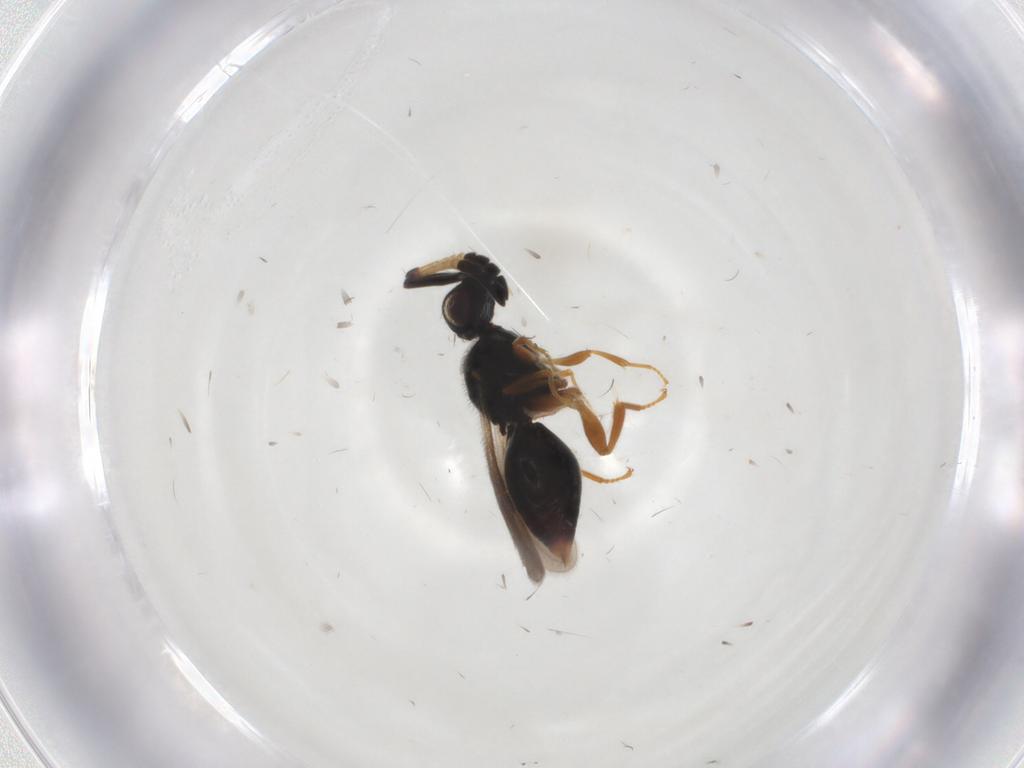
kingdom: Animalia
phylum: Arthropoda
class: Insecta
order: Hymenoptera
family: Ceraphronidae
